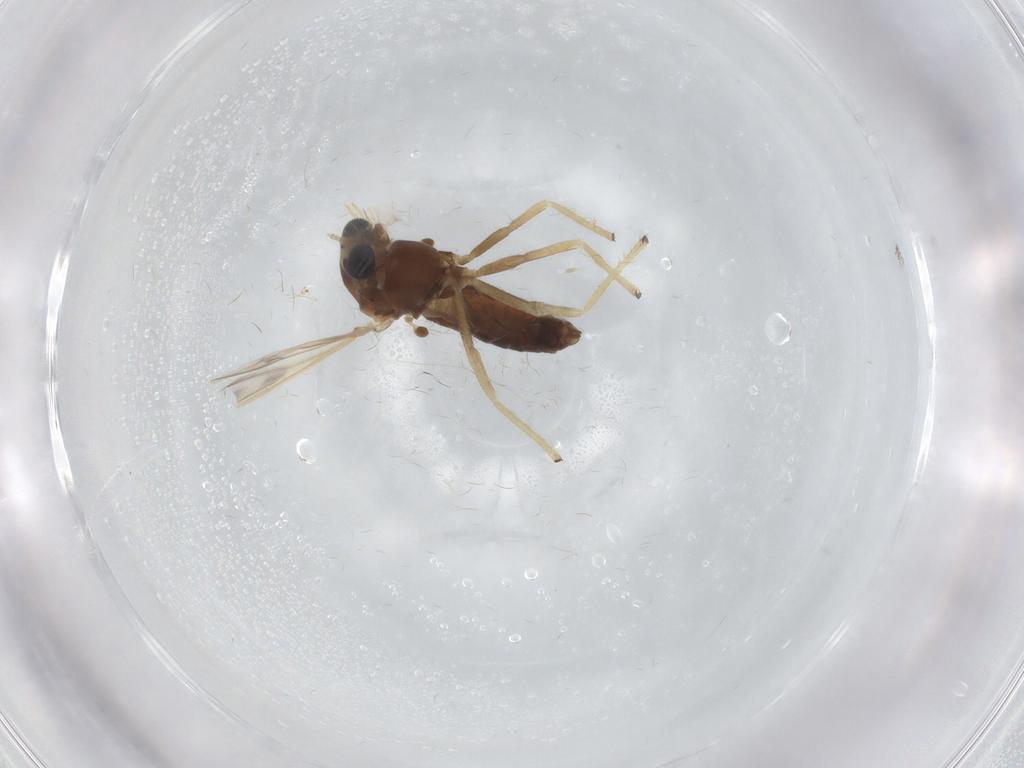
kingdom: Animalia
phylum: Arthropoda
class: Insecta
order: Diptera
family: Chironomidae
